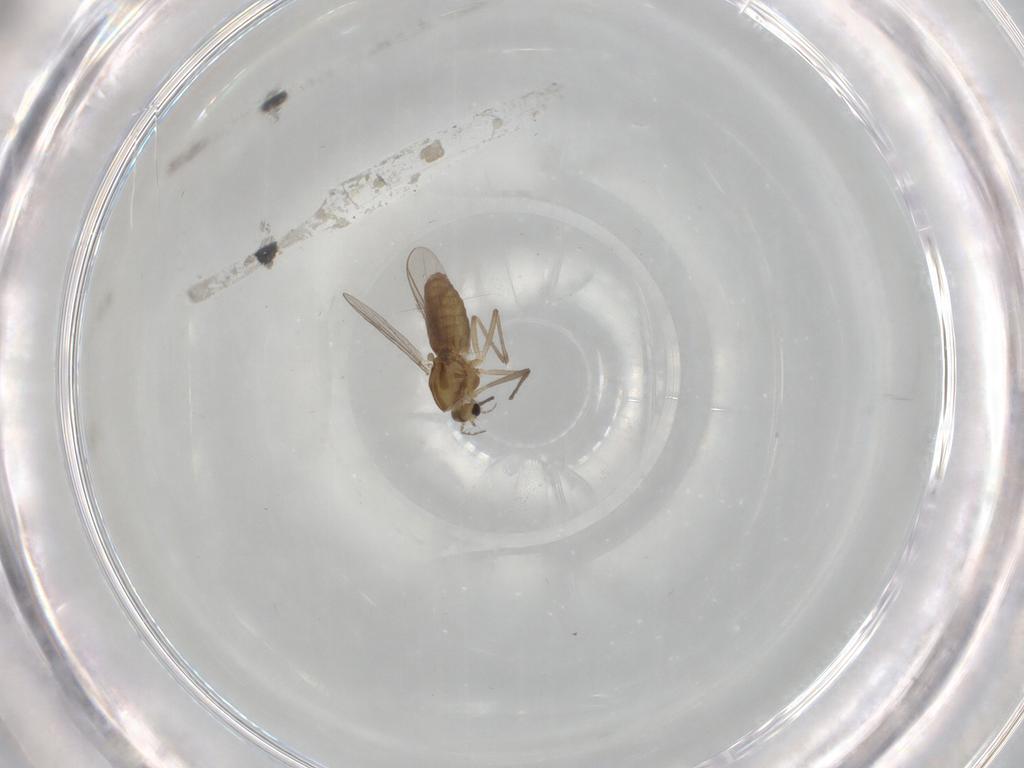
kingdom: Animalia
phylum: Arthropoda
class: Insecta
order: Diptera
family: Chironomidae
